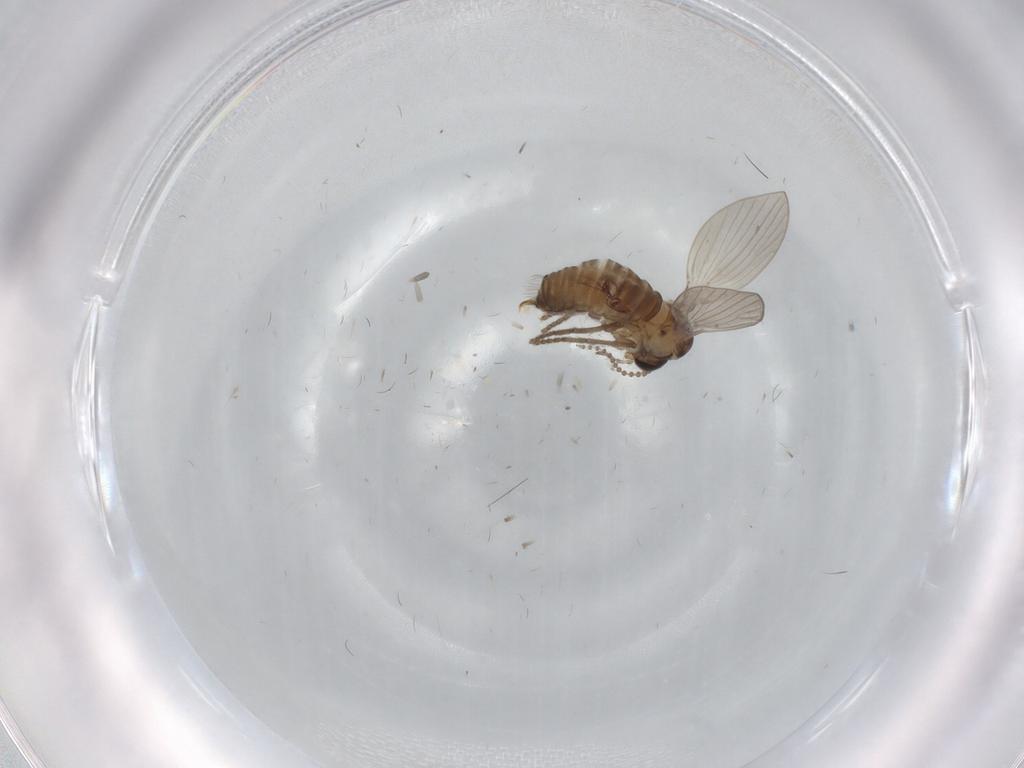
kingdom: Animalia
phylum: Arthropoda
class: Insecta
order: Diptera
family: Psychodidae
